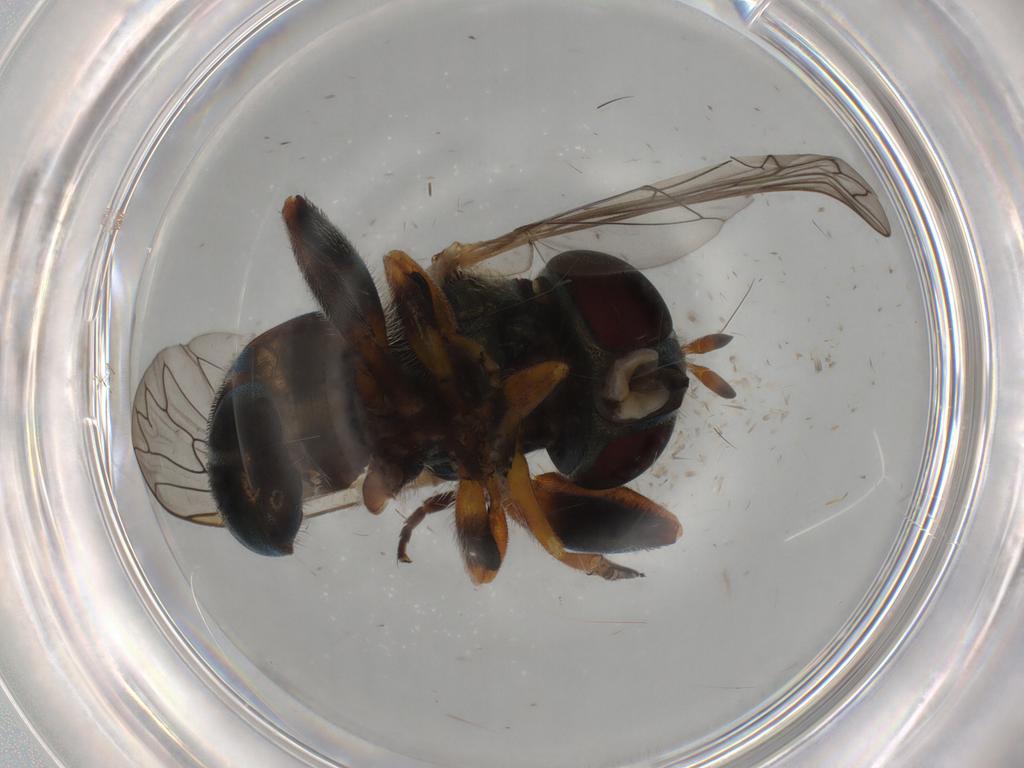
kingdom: Animalia
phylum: Arthropoda
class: Insecta
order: Diptera
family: Syrphidae
